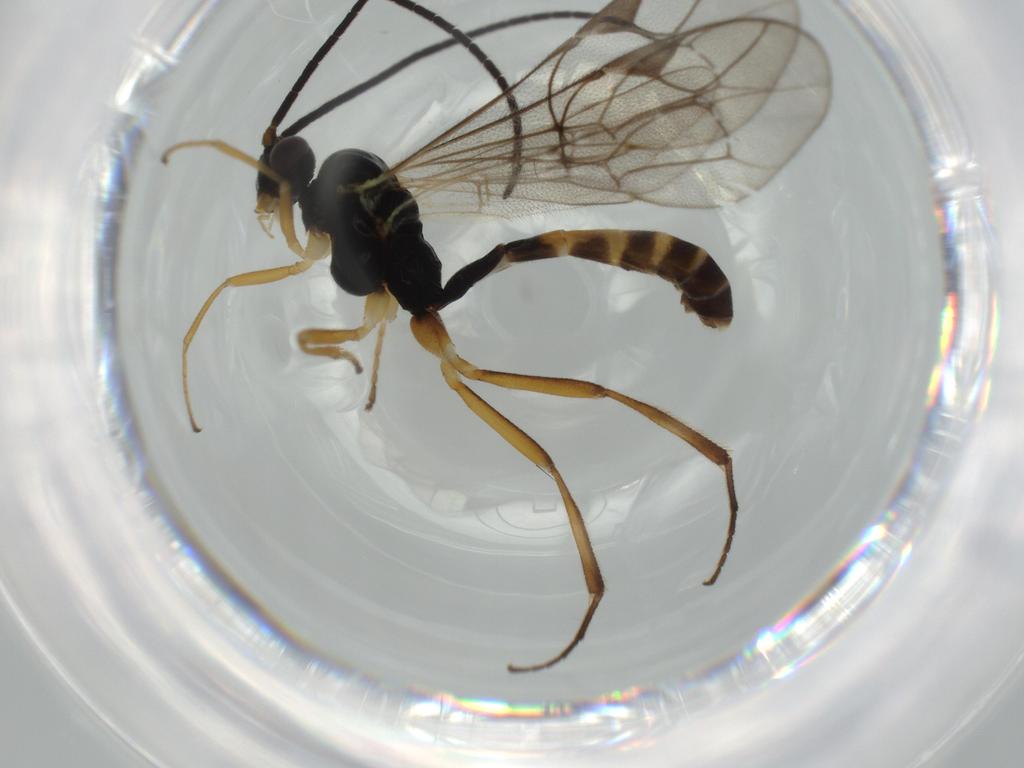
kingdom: Animalia
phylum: Arthropoda
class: Insecta
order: Hymenoptera
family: Ichneumonidae
